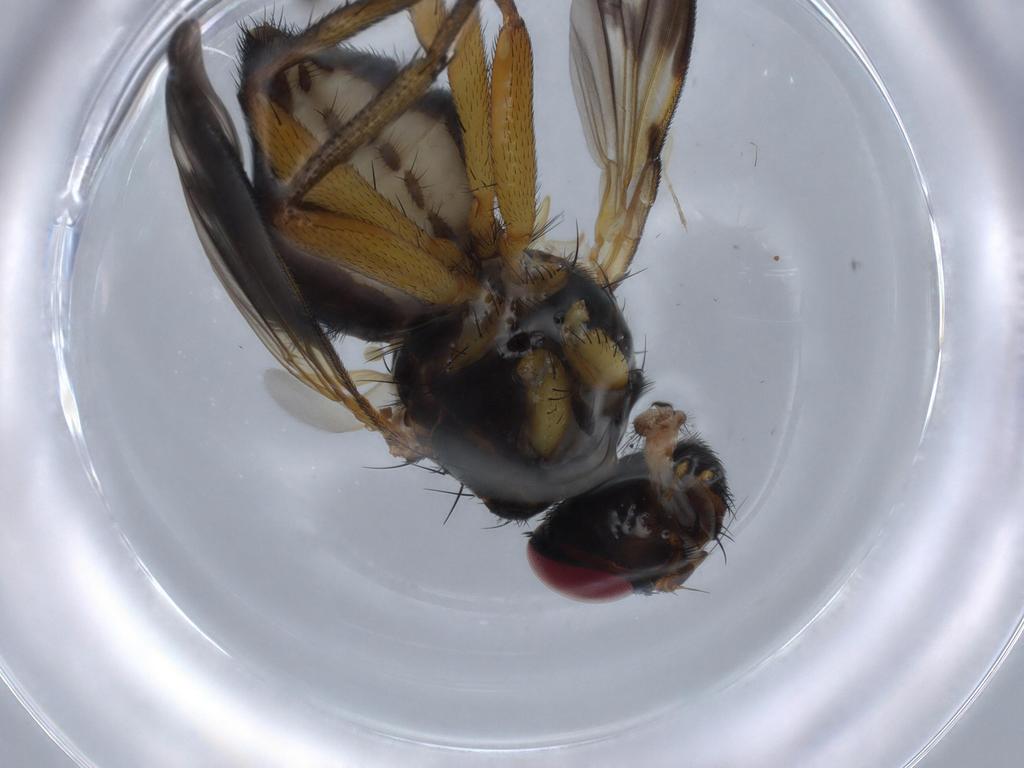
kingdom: Animalia
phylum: Arthropoda
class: Insecta
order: Diptera
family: Calliphoridae
